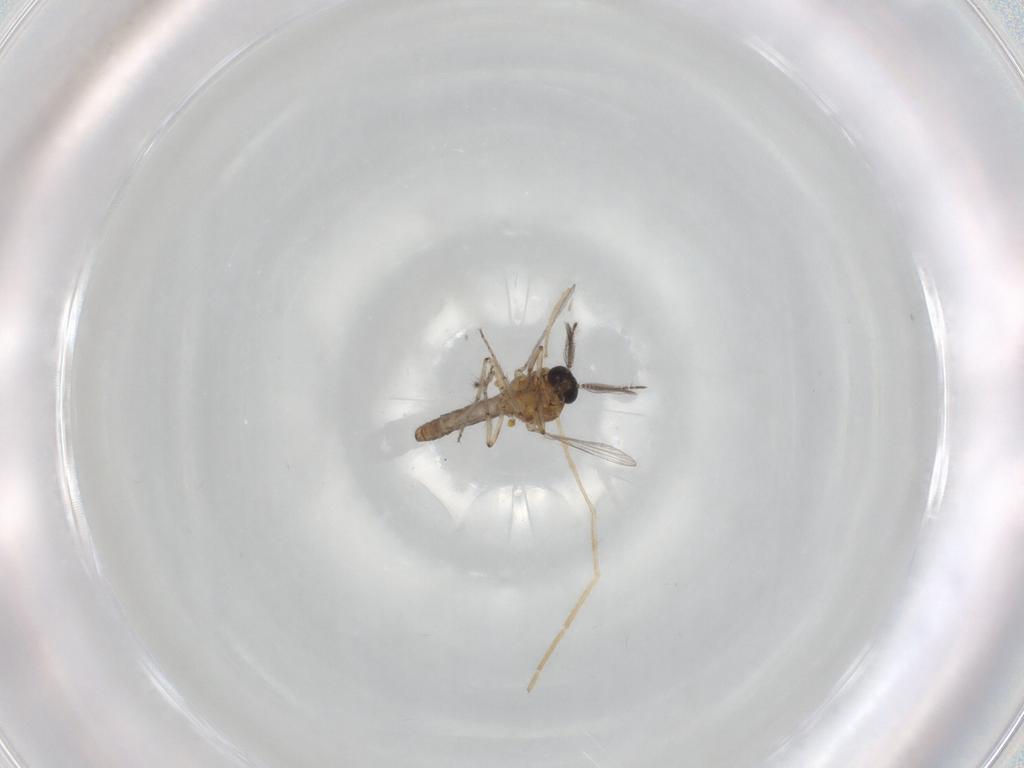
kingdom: Animalia
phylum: Arthropoda
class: Insecta
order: Diptera
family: Ceratopogonidae
